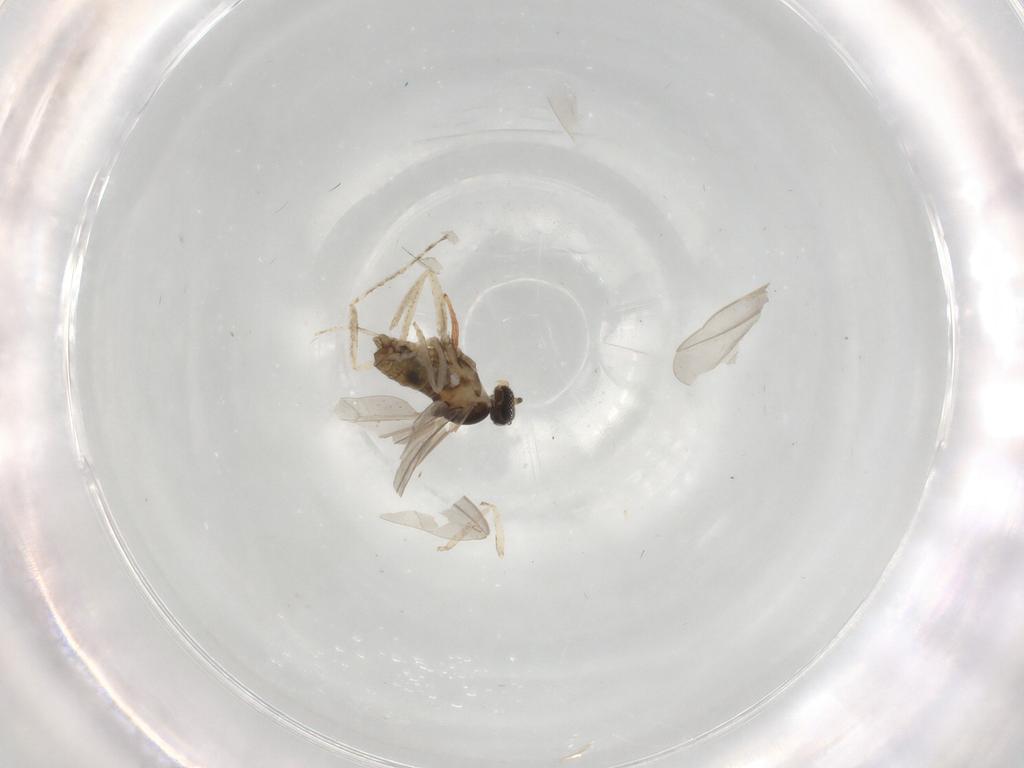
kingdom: Animalia
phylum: Arthropoda
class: Insecta
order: Diptera
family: Cecidomyiidae
